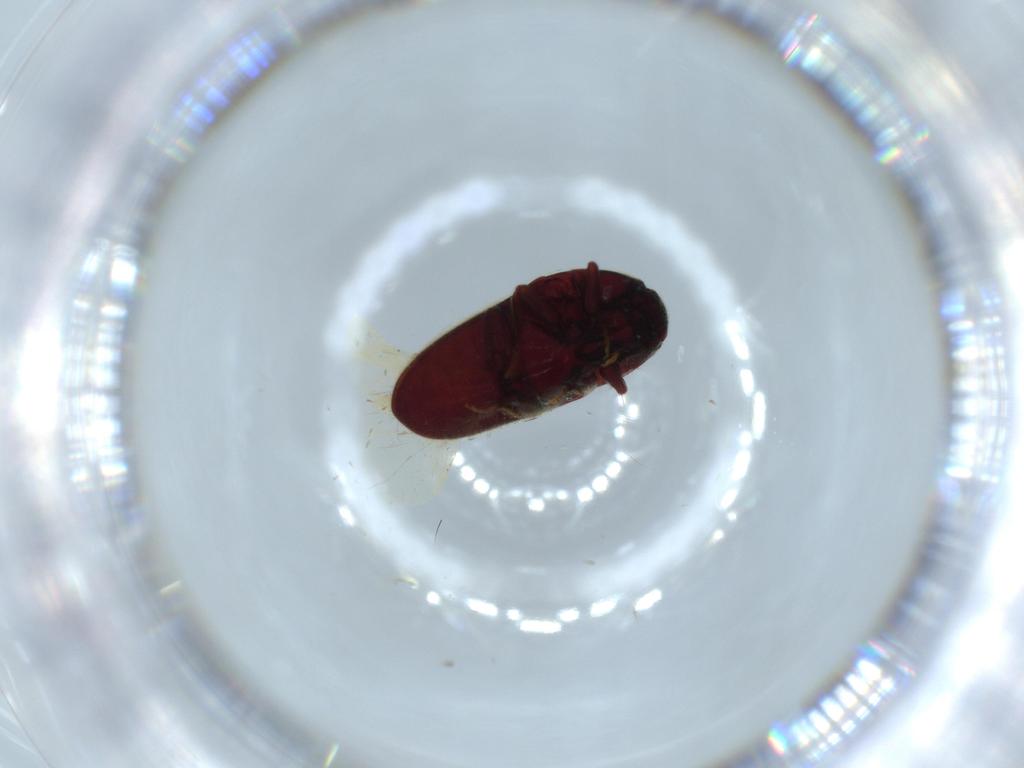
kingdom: Animalia
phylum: Arthropoda
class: Insecta
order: Coleoptera
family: Throscidae
